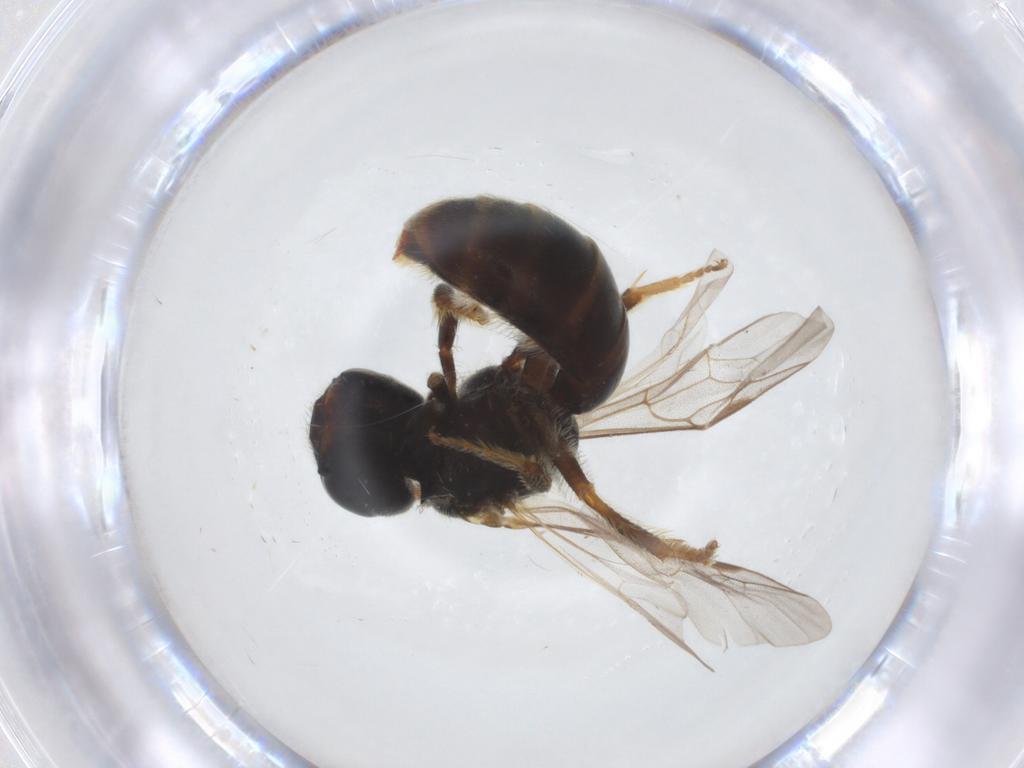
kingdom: Animalia
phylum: Arthropoda
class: Insecta
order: Hymenoptera
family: Halictidae
